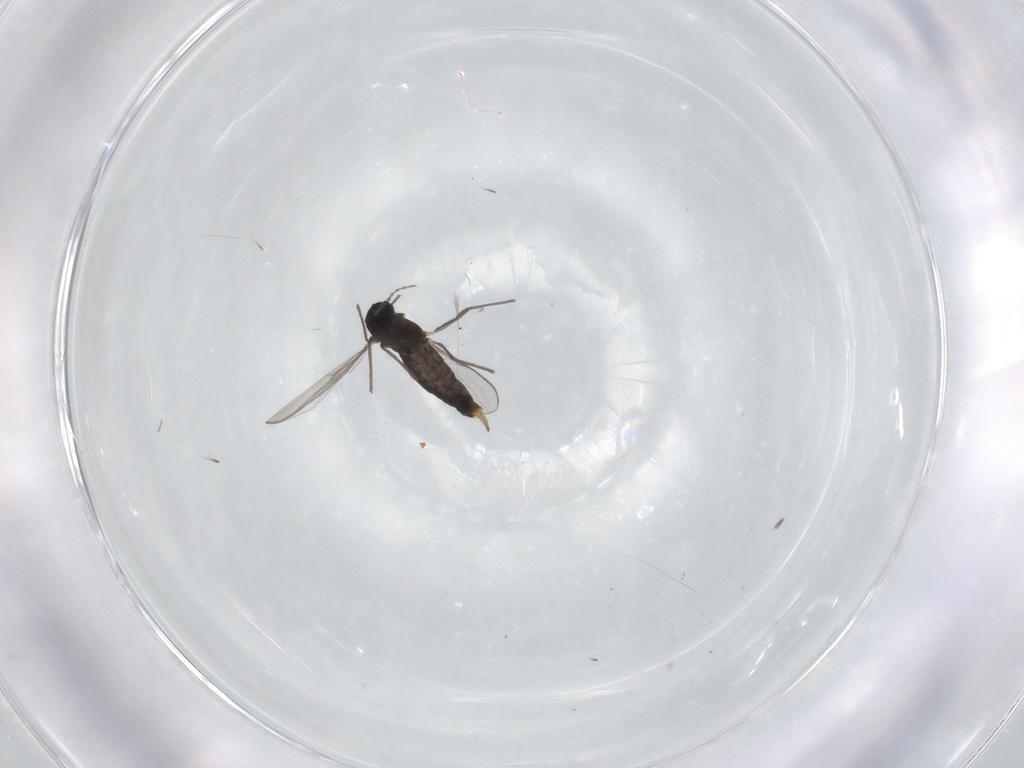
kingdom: Animalia
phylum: Arthropoda
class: Insecta
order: Diptera
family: Chironomidae
